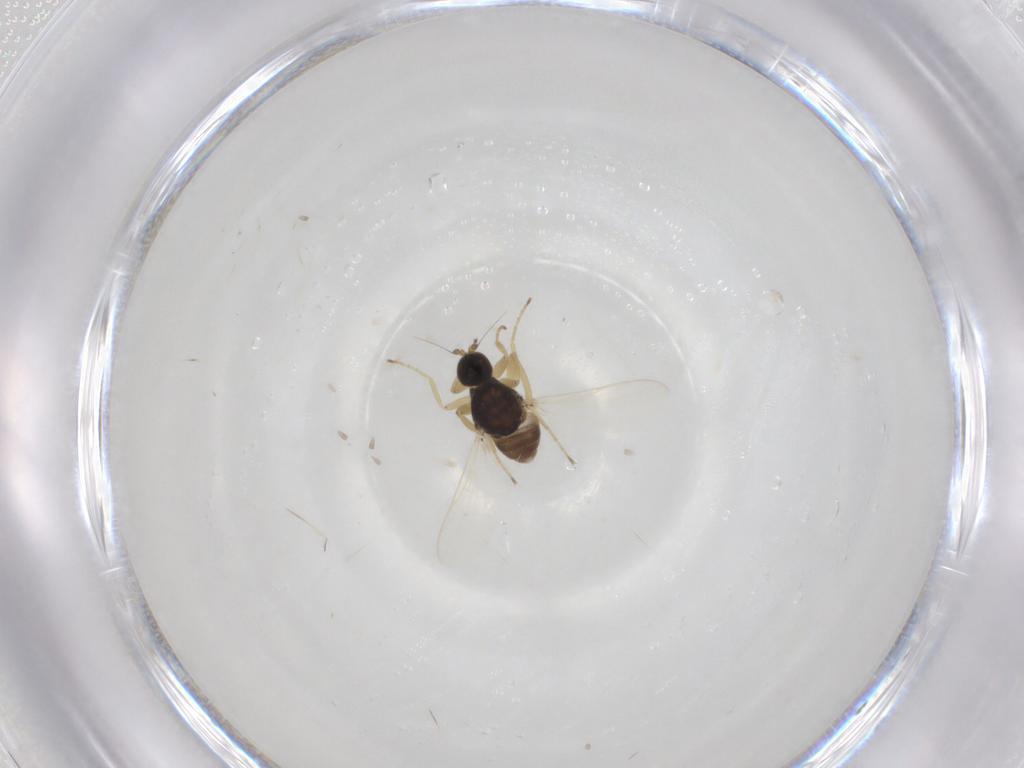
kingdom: Animalia
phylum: Arthropoda
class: Insecta
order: Diptera
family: Hybotidae
